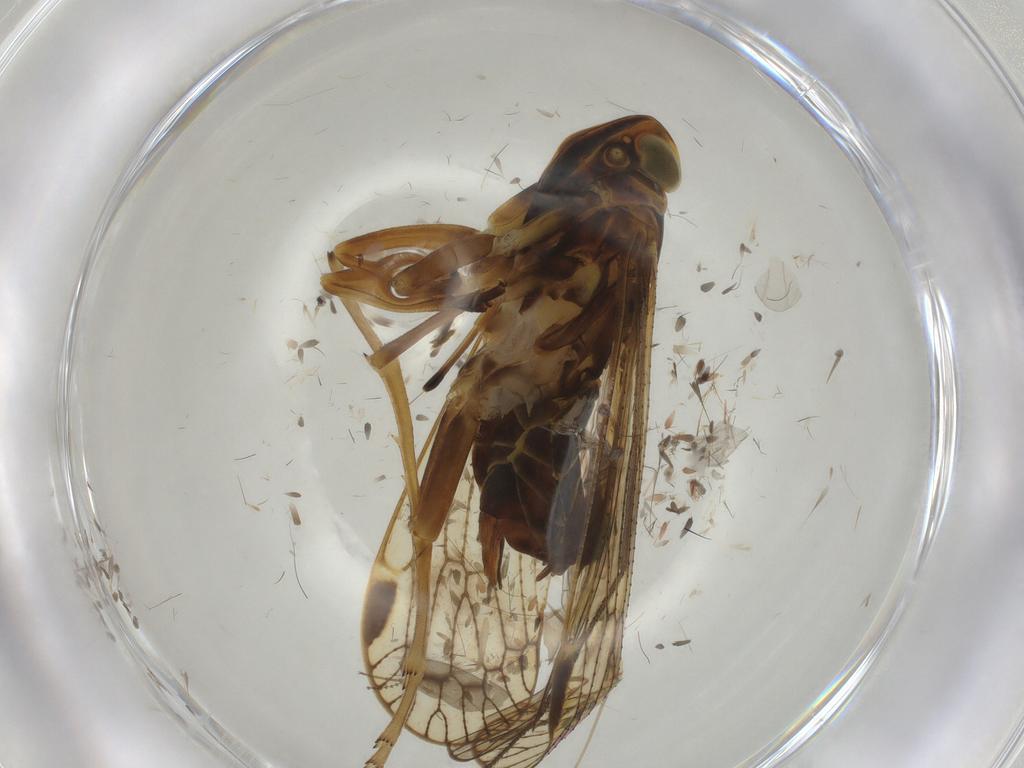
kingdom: Animalia
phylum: Arthropoda
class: Insecta
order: Hemiptera
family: Cixiidae
